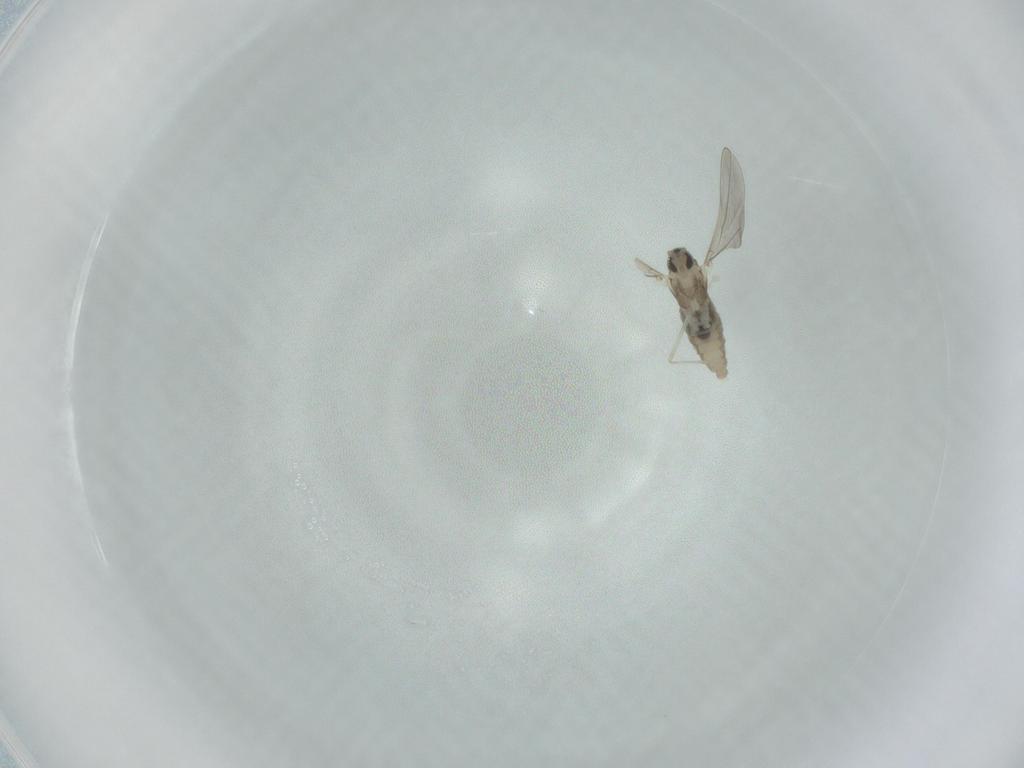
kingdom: Animalia
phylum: Arthropoda
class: Insecta
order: Diptera
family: Cecidomyiidae
